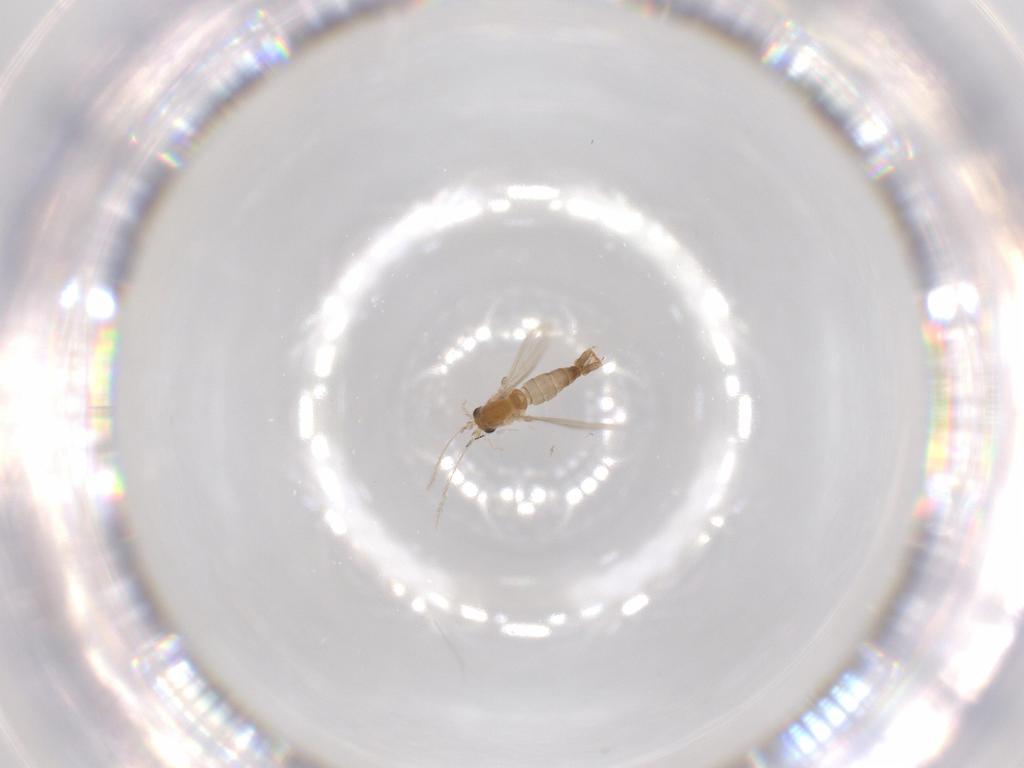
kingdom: Animalia
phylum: Arthropoda
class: Insecta
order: Diptera
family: Psychodidae
